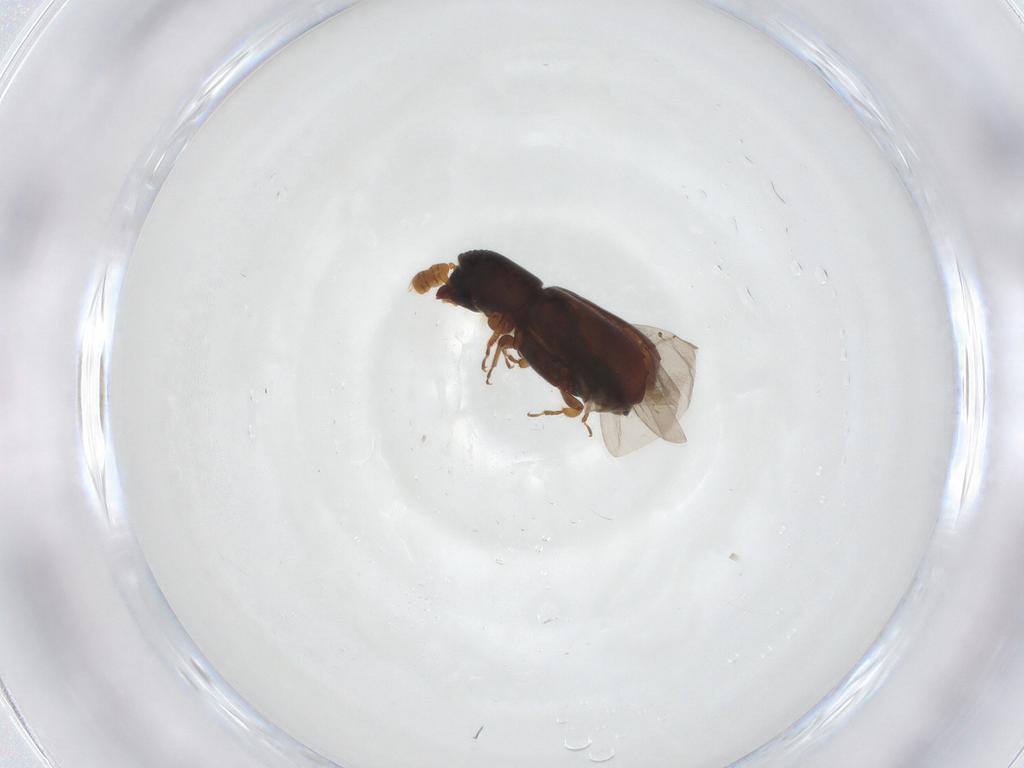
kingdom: Animalia
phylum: Arthropoda
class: Insecta
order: Coleoptera
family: Curculionidae
